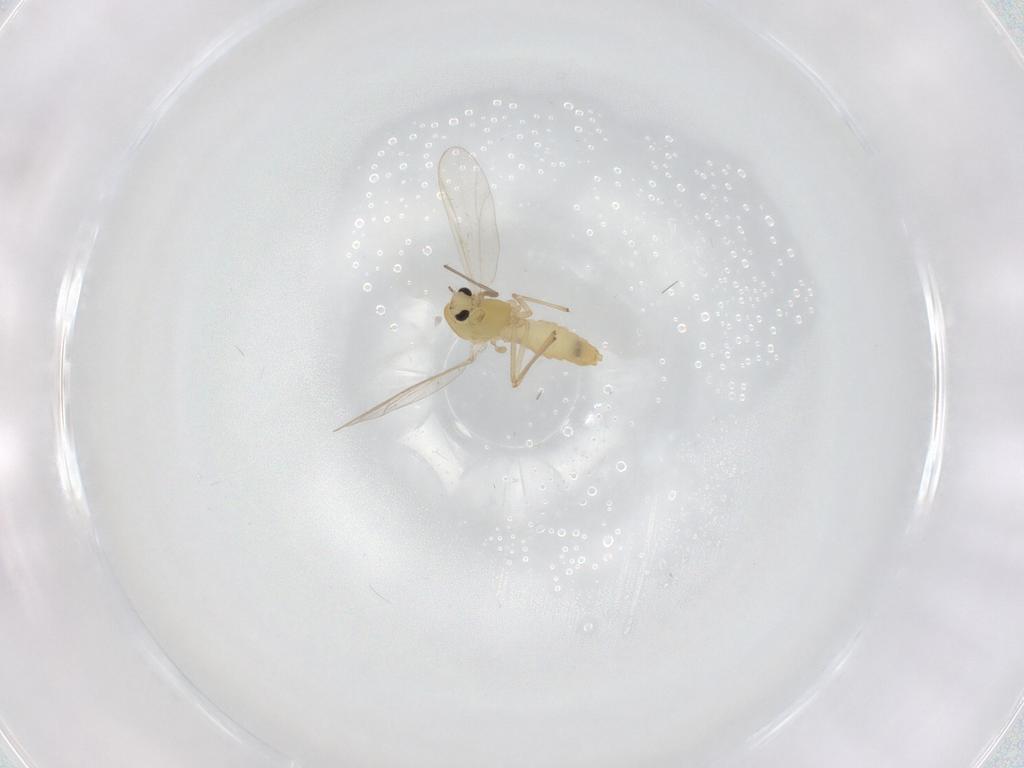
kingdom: Animalia
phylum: Arthropoda
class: Insecta
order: Diptera
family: Chironomidae
